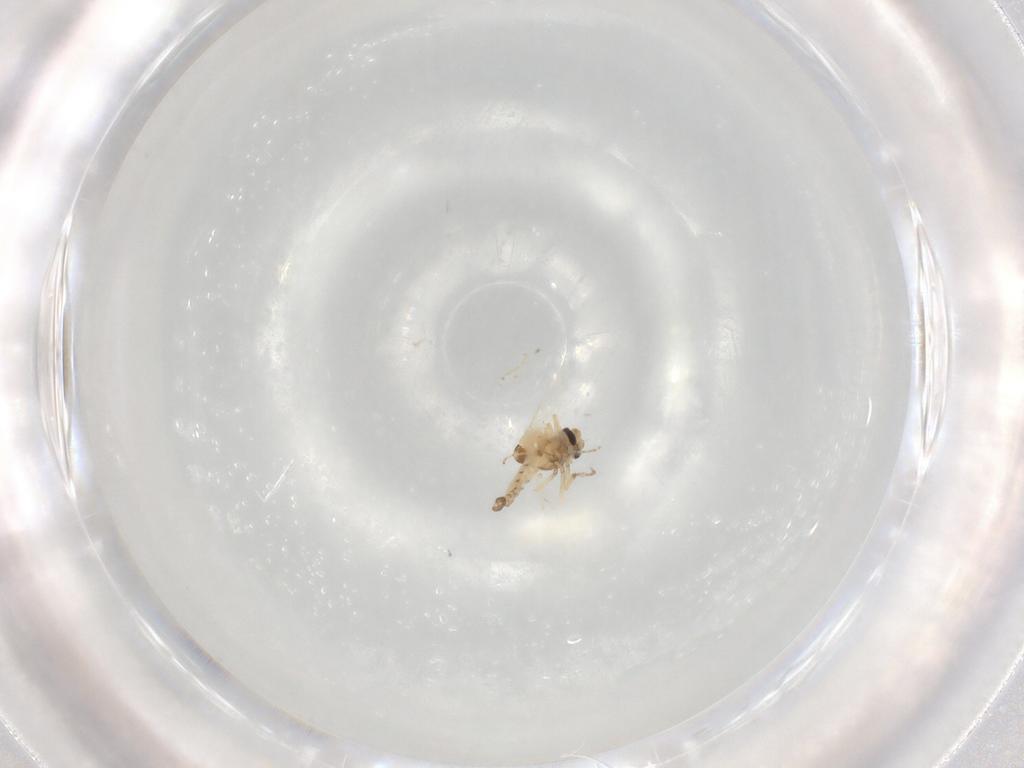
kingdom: Animalia
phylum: Arthropoda
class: Insecta
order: Diptera
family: Ceratopogonidae
